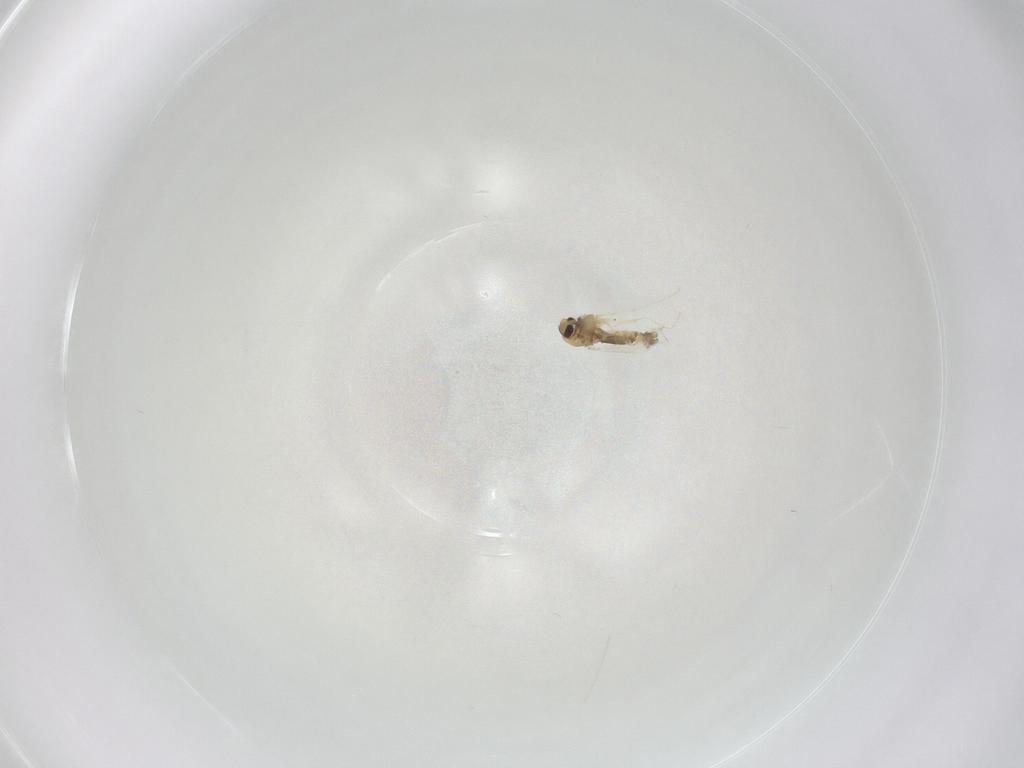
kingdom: Animalia
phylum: Arthropoda
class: Insecta
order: Diptera
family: Chironomidae
